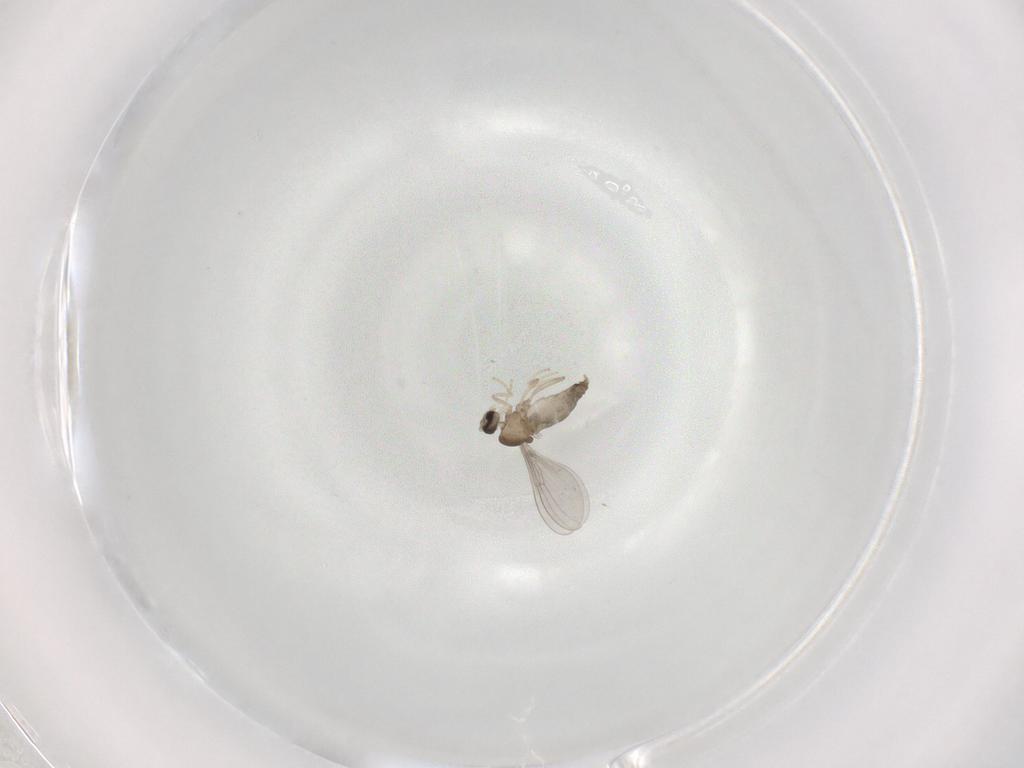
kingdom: Animalia
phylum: Arthropoda
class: Insecta
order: Diptera
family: Cecidomyiidae
